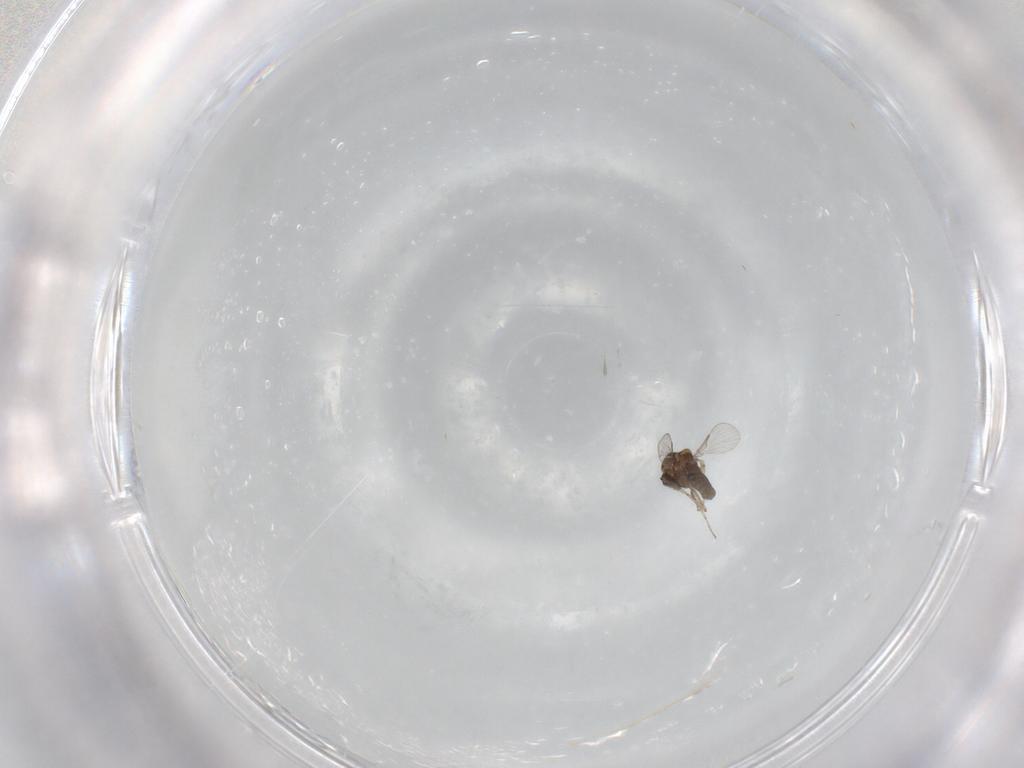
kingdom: Animalia
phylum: Arthropoda
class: Insecta
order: Diptera
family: Ceratopogonidae
